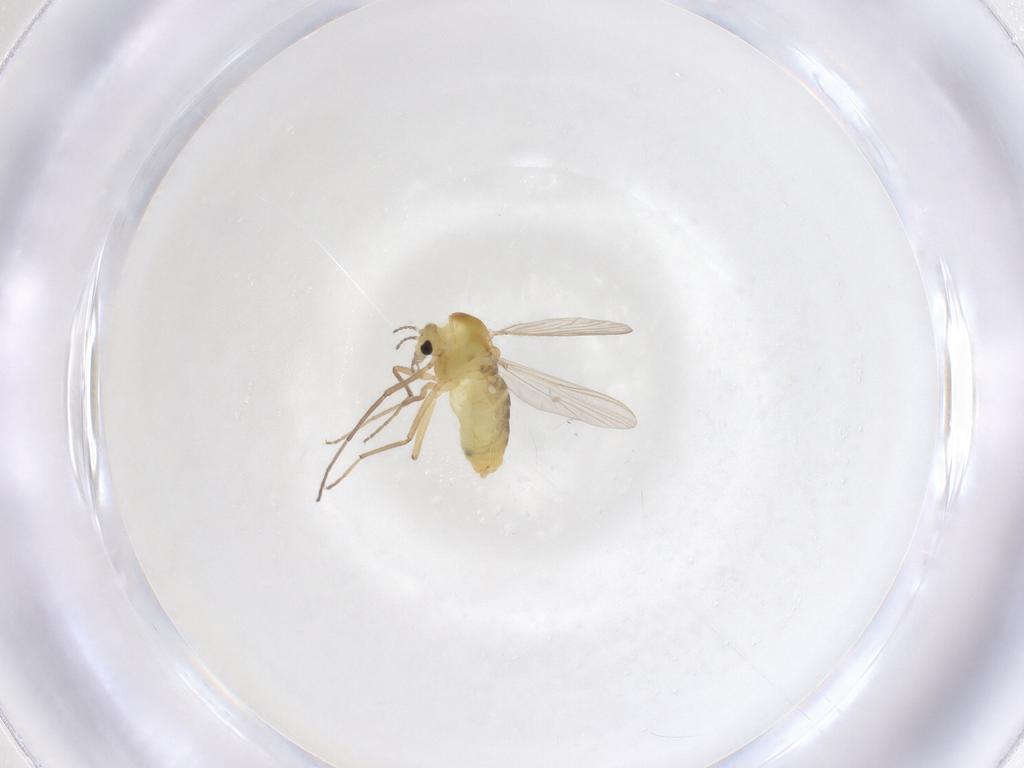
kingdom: Animalia
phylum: Arthropoda
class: Insecta
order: Diptera
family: Chironomidae
